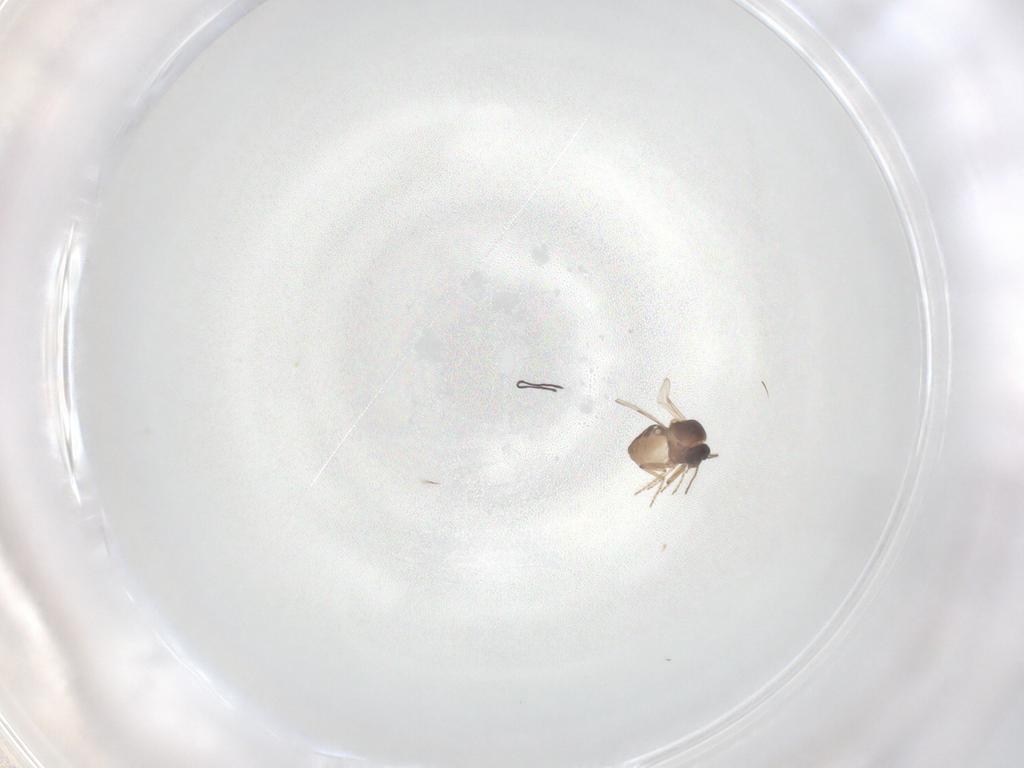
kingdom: Animalia
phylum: Arthropoda
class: Insecta
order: Diptera
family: Ceratopogonidae
